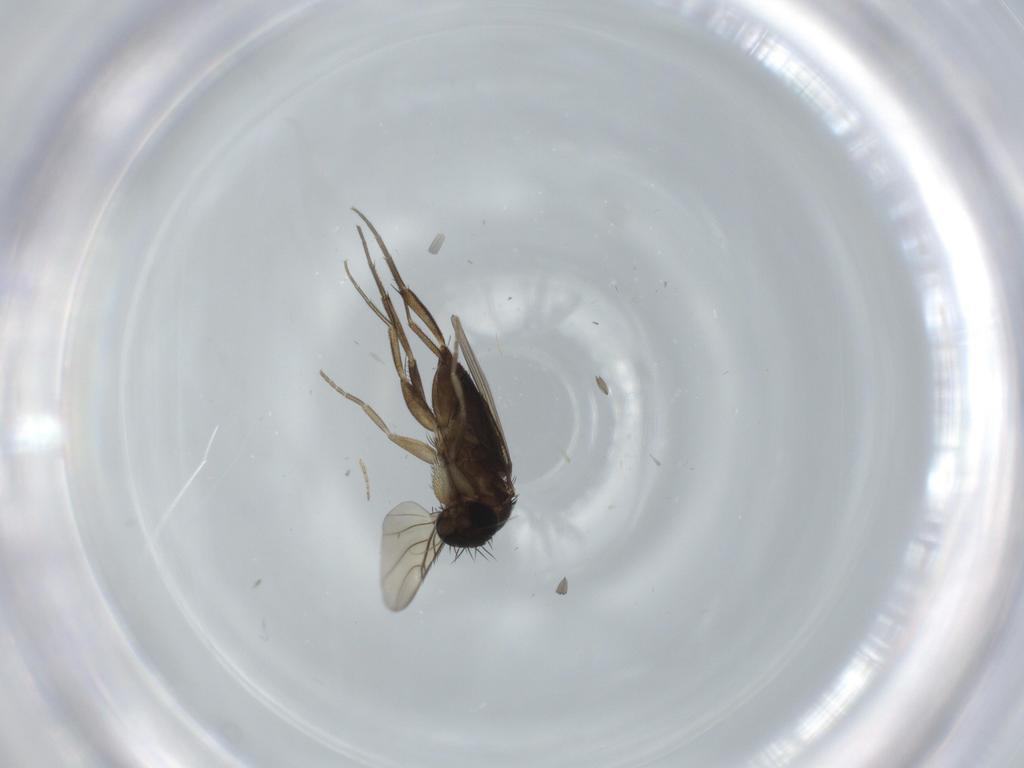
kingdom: Animalia
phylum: Arthropoda
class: Insecta
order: Diptera
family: Phoridae
